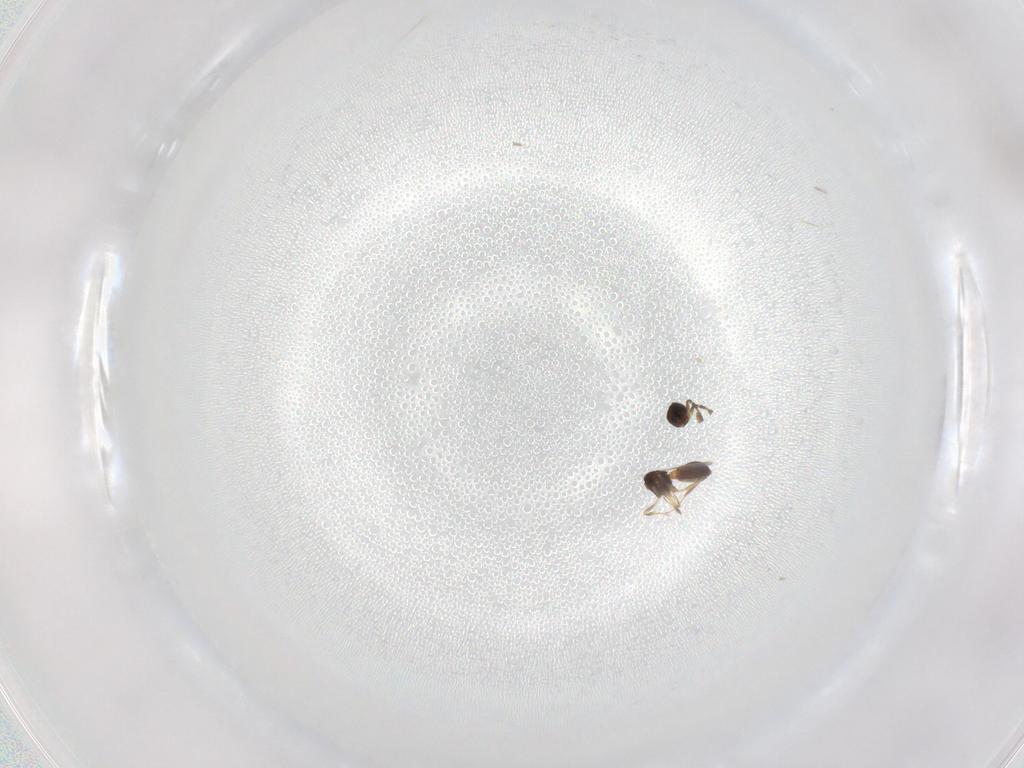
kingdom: Animalia
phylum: Arthropoda
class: Insecta
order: Hymenoptera
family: Scelionidae
